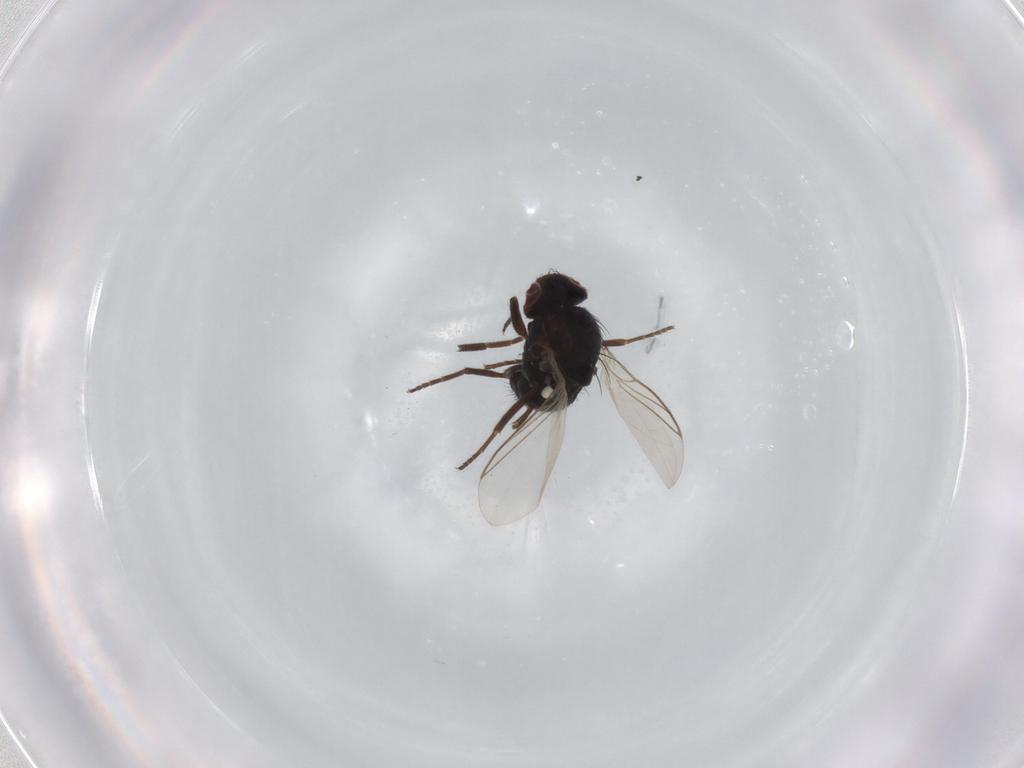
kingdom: Animalia
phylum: Arthropoda
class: Insecta
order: Diptera
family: Agromyzidae
